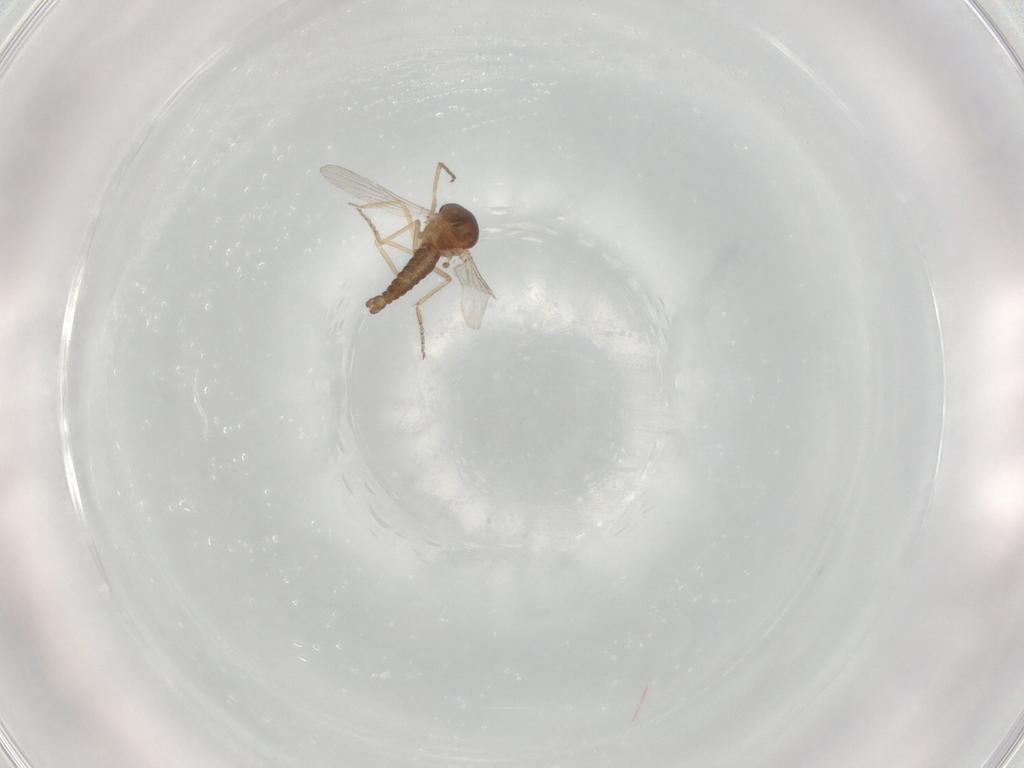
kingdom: Animalia
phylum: Arthropoda
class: Insecta
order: Diptera
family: Ceratopogonidae
